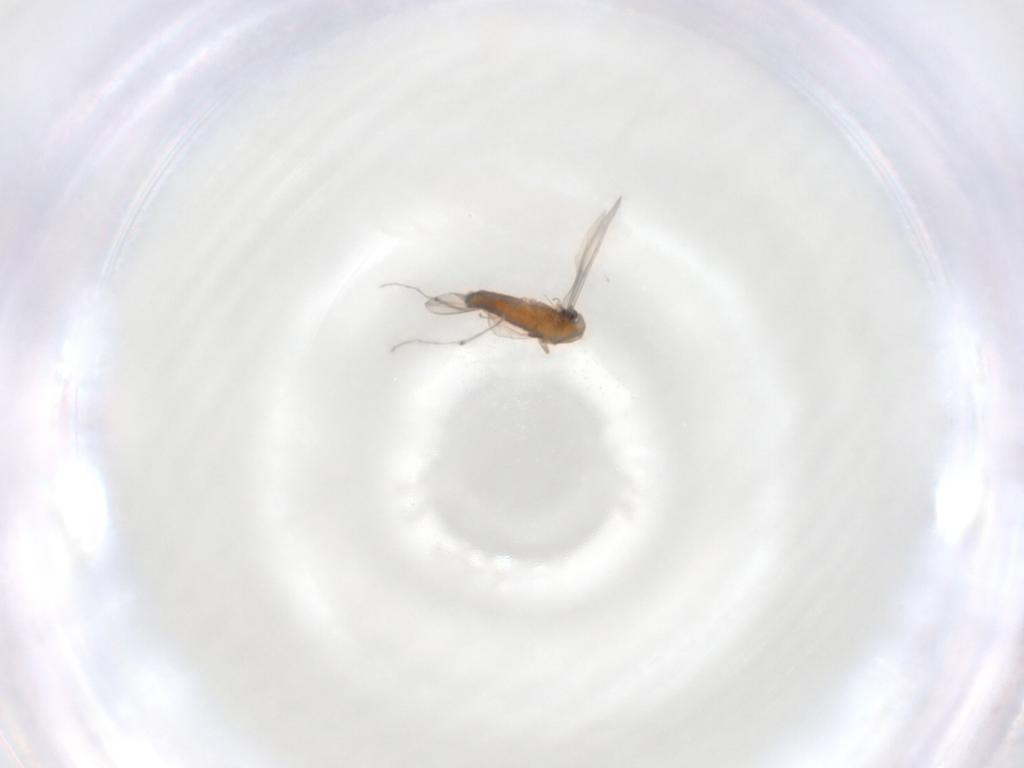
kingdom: Animalia
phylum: Arthropoda
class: Insecta
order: Diptera
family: Chironomidae
